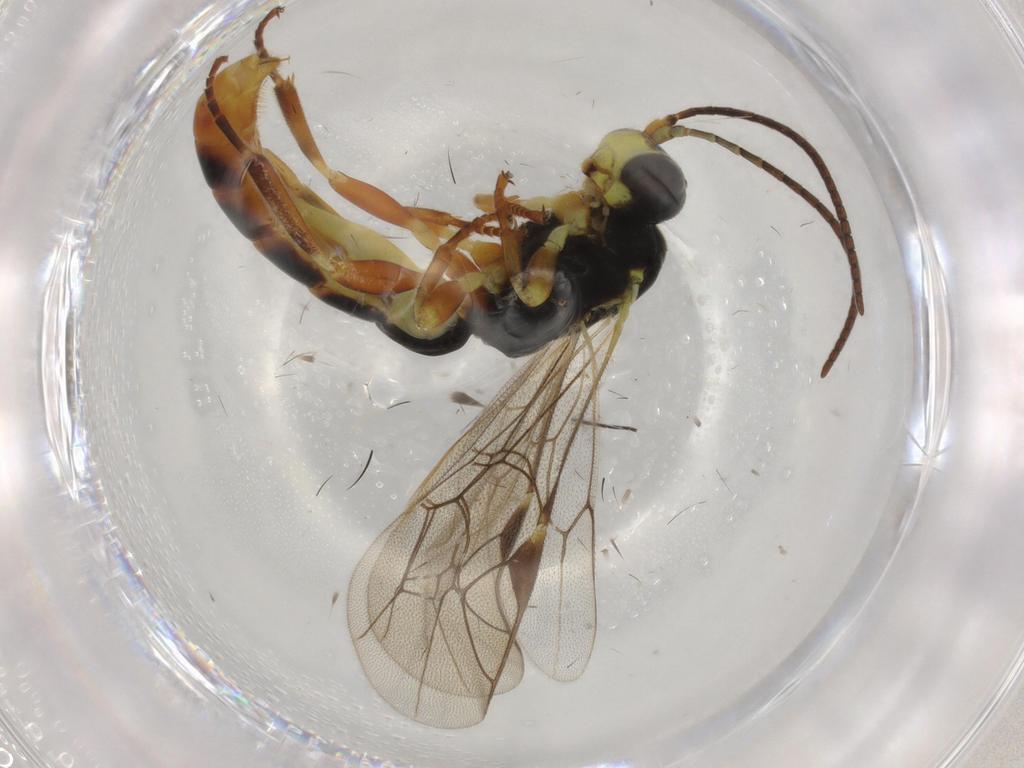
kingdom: Animalia
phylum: Arthropoda
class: Insecta
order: Hymenoptera
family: Ichneumonidae
